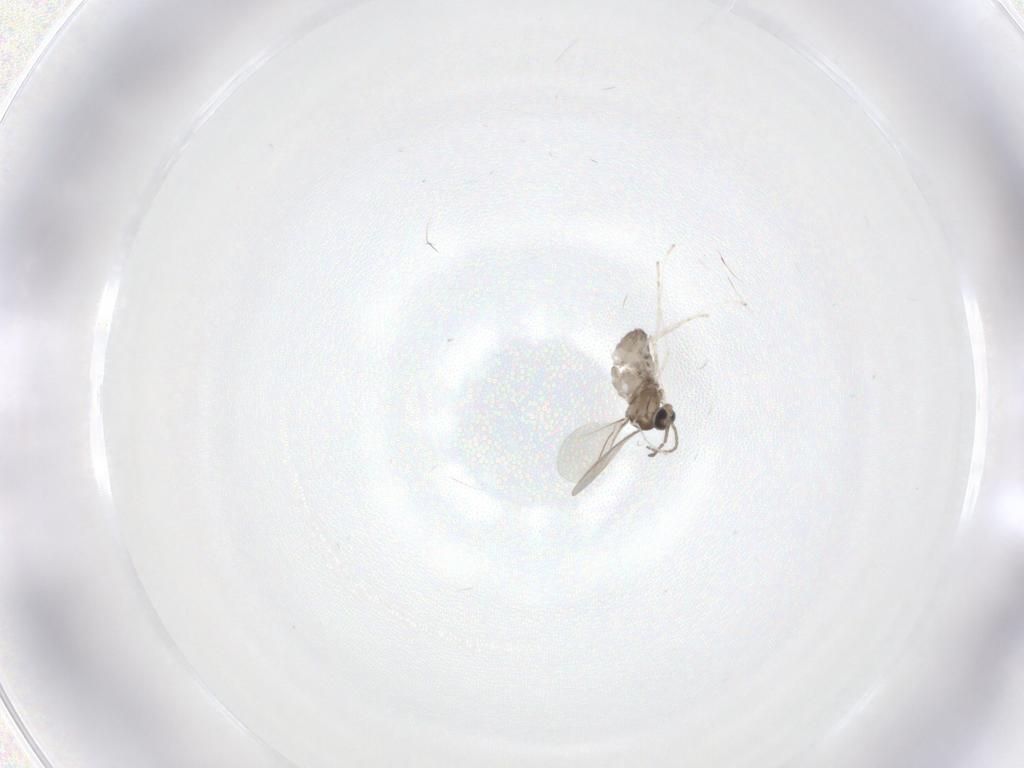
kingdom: Animalia
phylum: Arthropoda
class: Insecta
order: Diptera
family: Cecidomyiidae
